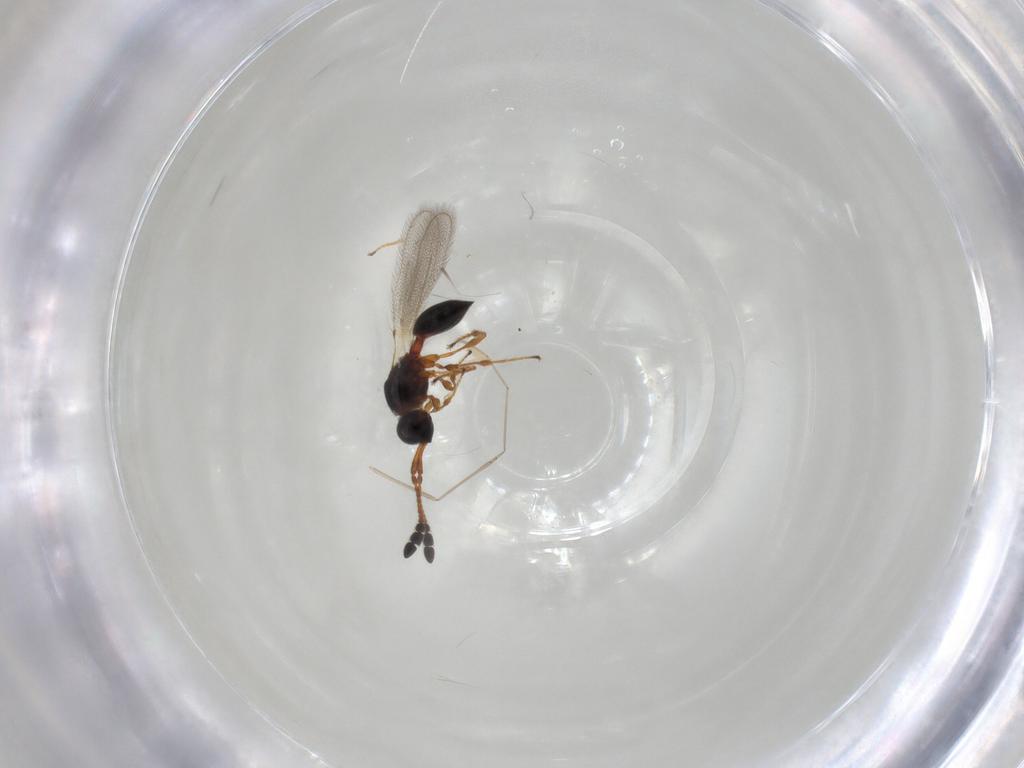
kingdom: Animalia
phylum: Arthropoda
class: Insecta
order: Hymenoptera
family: Diapriidae
